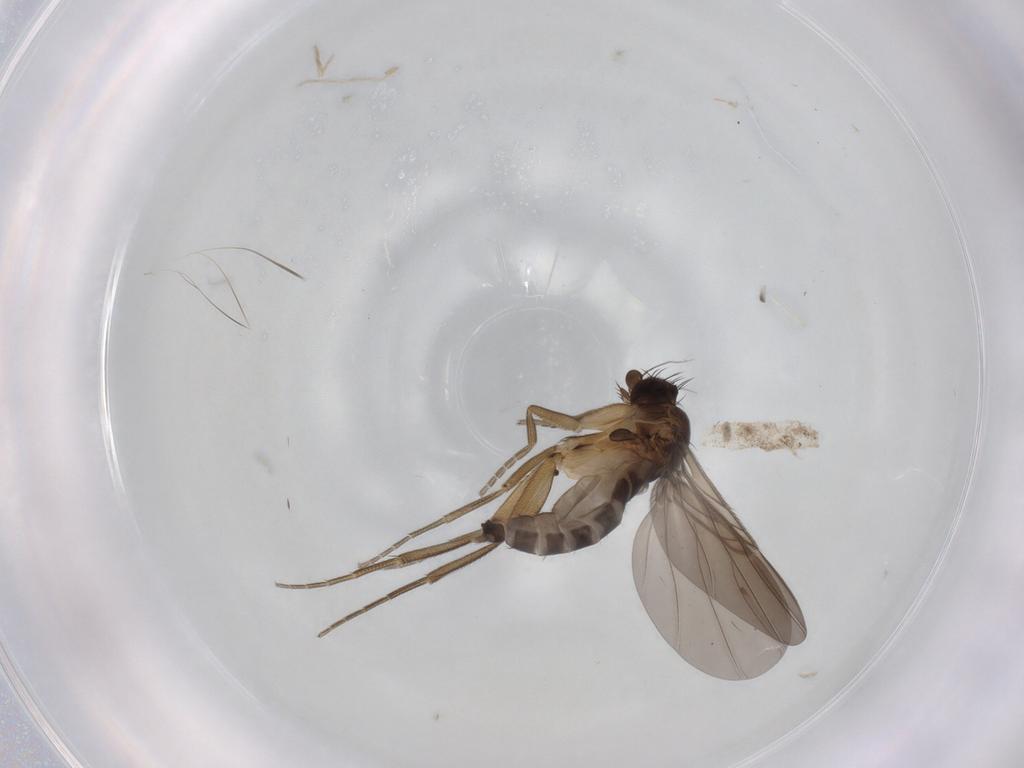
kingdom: Animalia
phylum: Arthropoda
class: Insecta
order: Diptera
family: Phoridae
